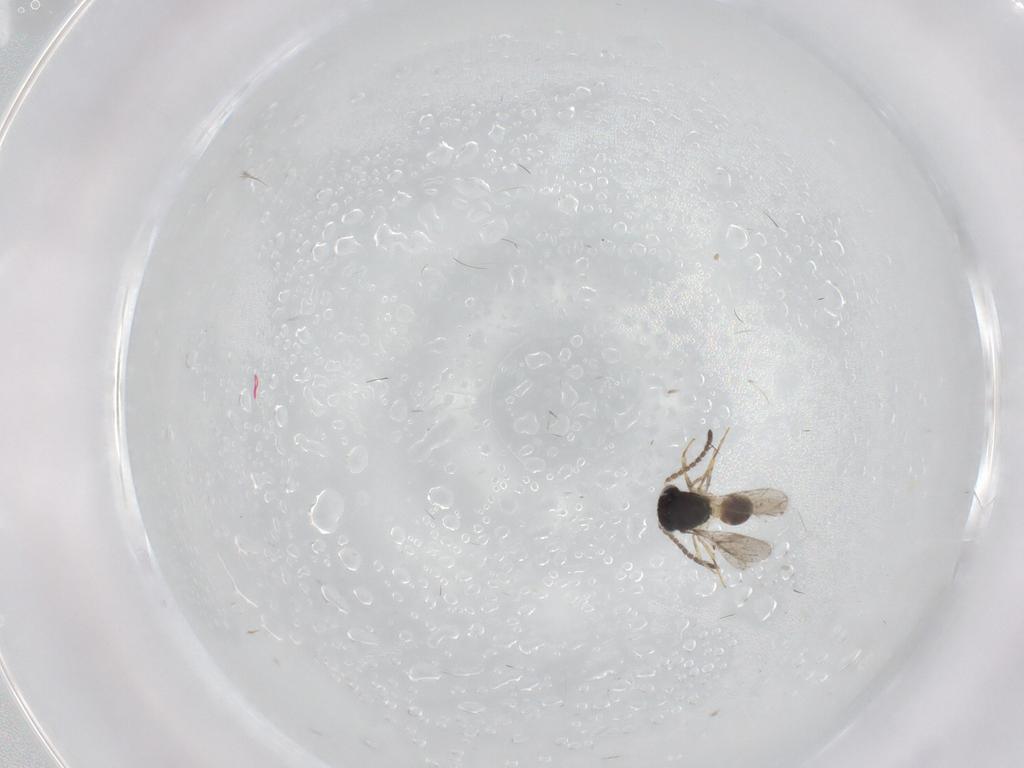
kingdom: Animalia
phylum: Arthropoda
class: Insecta
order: Hymenoptera
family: Scelionidae
